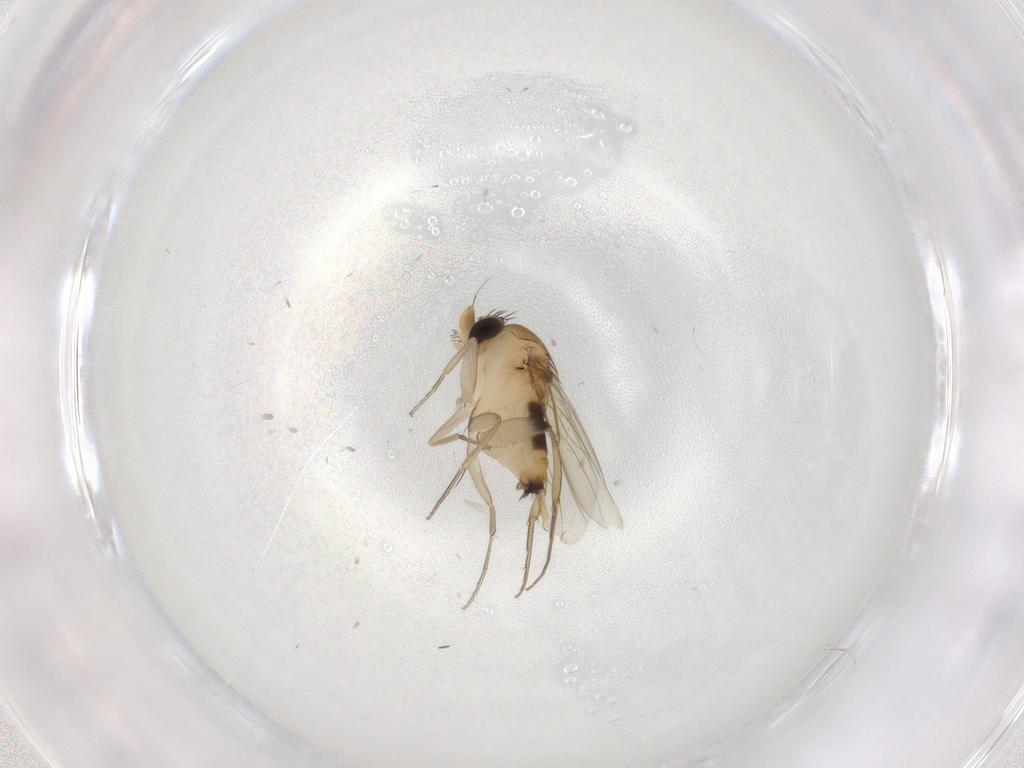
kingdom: Animalia
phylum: Arthropoda
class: Insecta
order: Diptera
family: Phoridae
